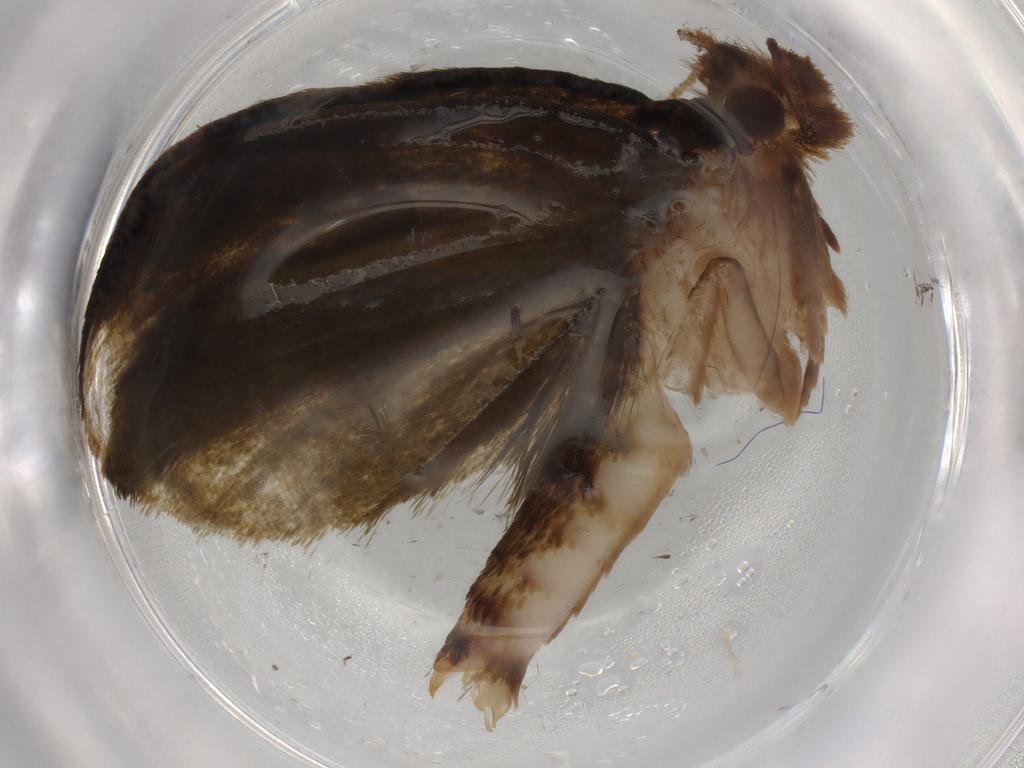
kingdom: Animalia
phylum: Arthropoda
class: Insecta
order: Lepidoptera
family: Geometridae
